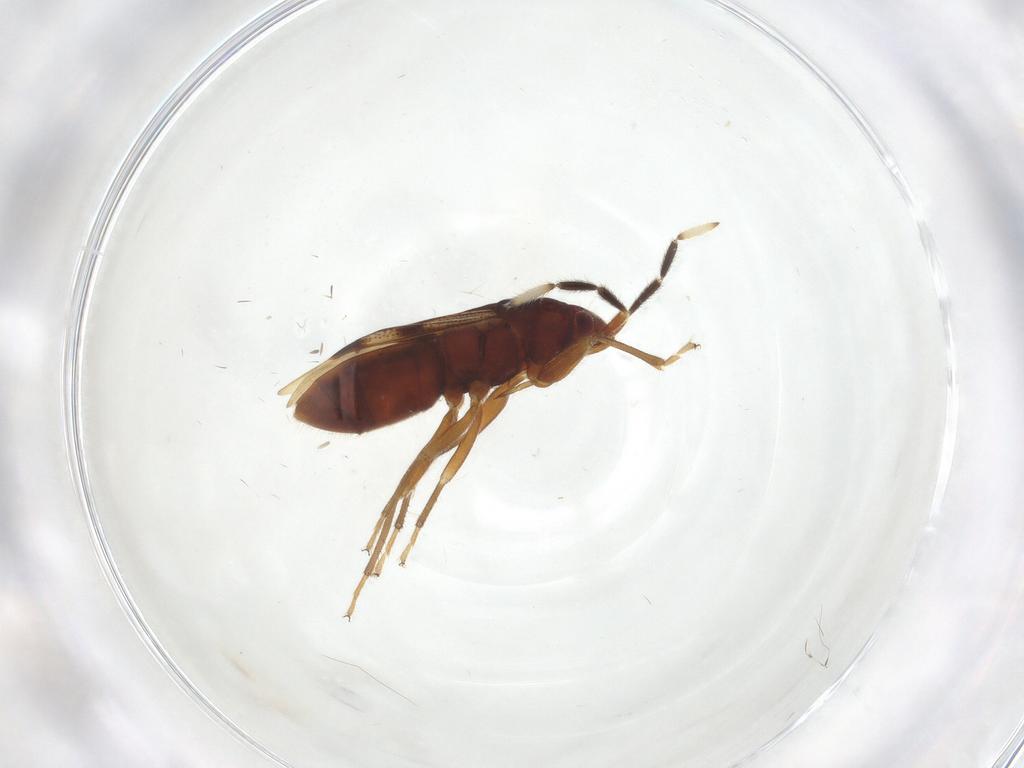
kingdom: Animalia
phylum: Arthropoda
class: Insecta
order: Hemiptera
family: Rhyparochromidae
